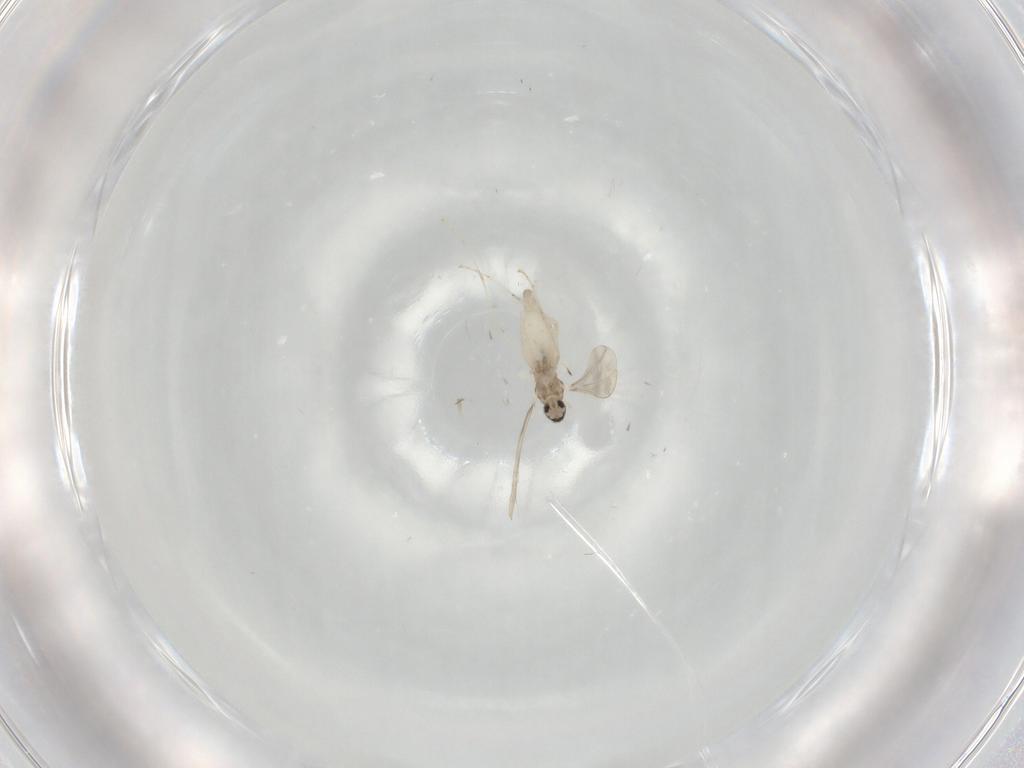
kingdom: Animalia
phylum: Arthropoda
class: Insecta
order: Diptera
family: Cecidomyiidae
